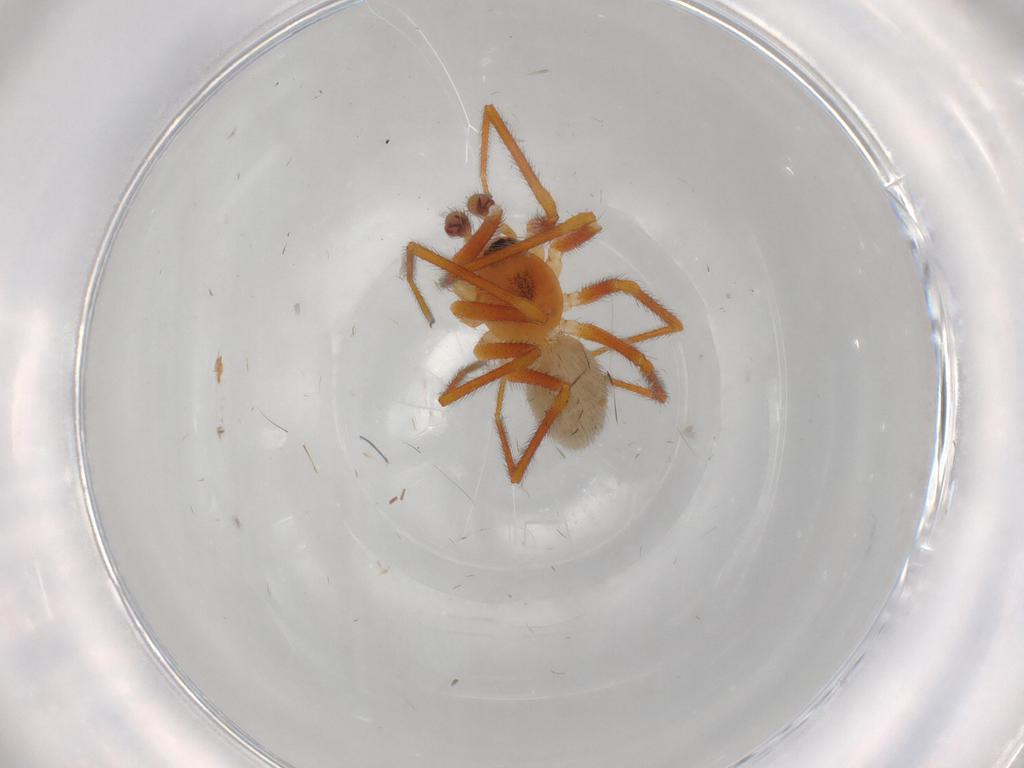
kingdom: Animalia
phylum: Arthropoda
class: Arachnida
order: Araneae
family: Linyphiidae
